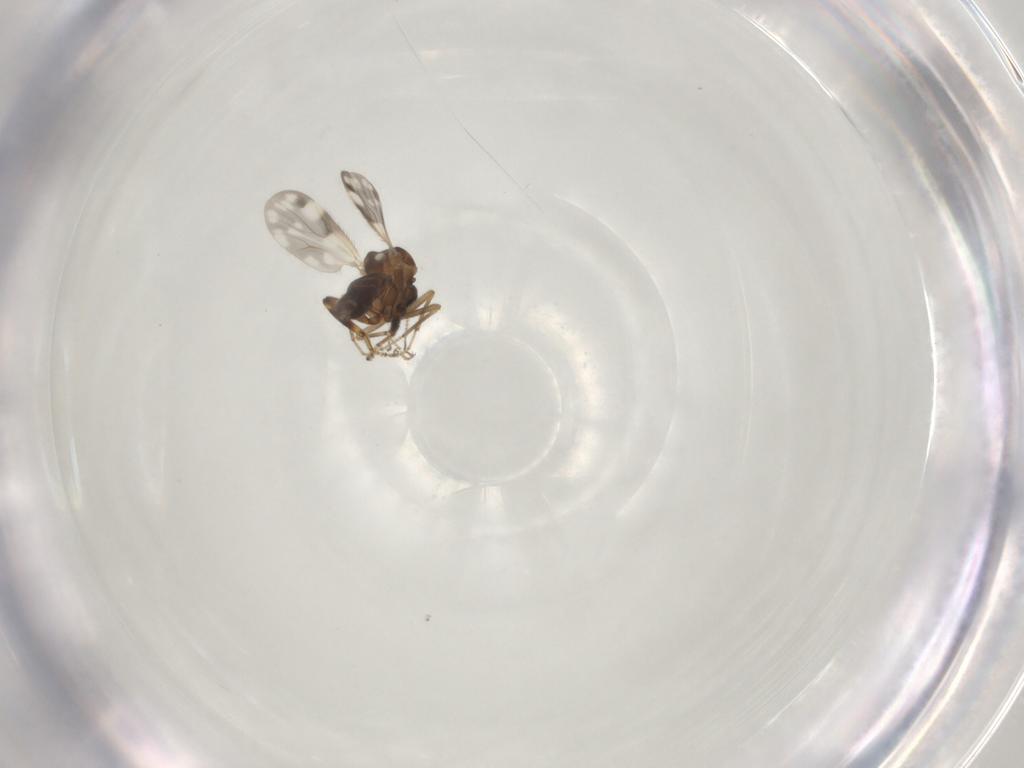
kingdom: Animalia
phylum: Arthropoda
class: Insecta
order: Diptera
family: Ceratopogonidae
